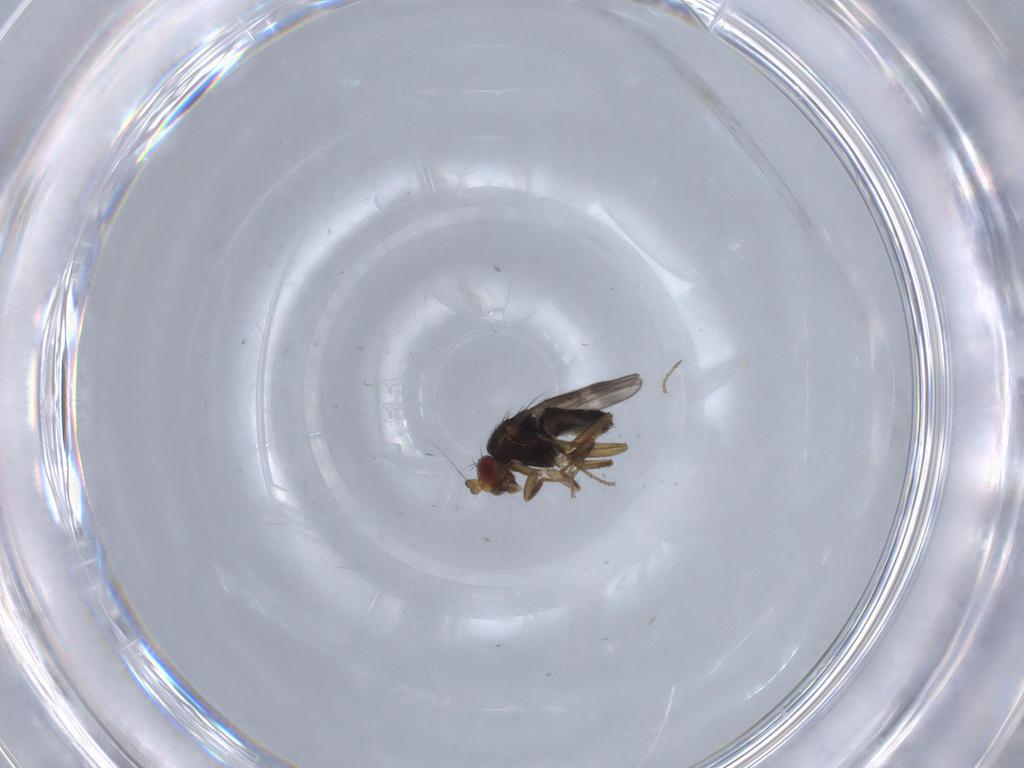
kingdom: Animalia
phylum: Arthropoda
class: Insecta
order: Diptera
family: Sphaeroceridae
